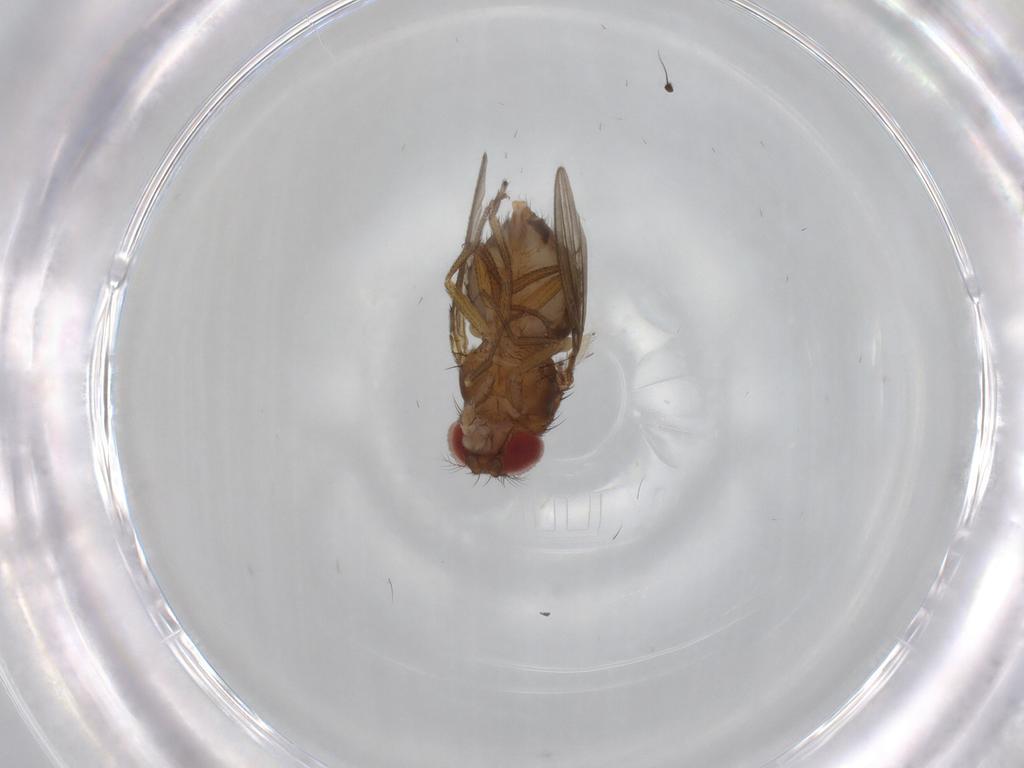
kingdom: Animalia
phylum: Arthropoda
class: Insecta
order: Diptera
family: Drosophilidae
